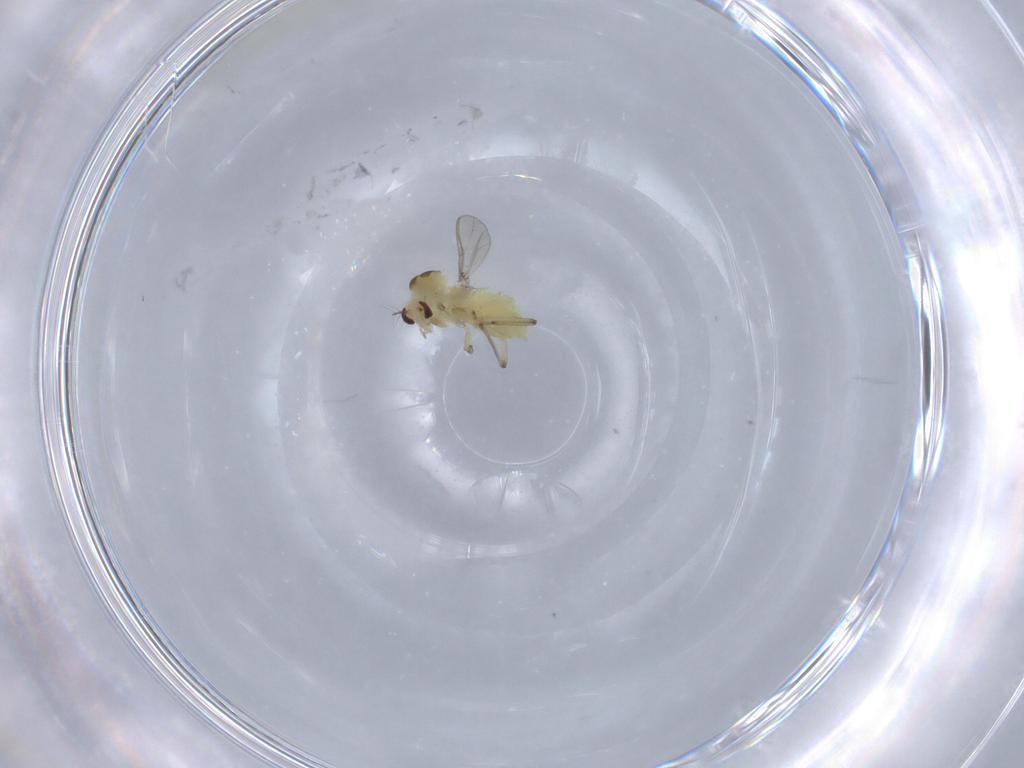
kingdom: Animalia
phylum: Arthropoda
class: Insecta
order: Diptera
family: Chironomidae
